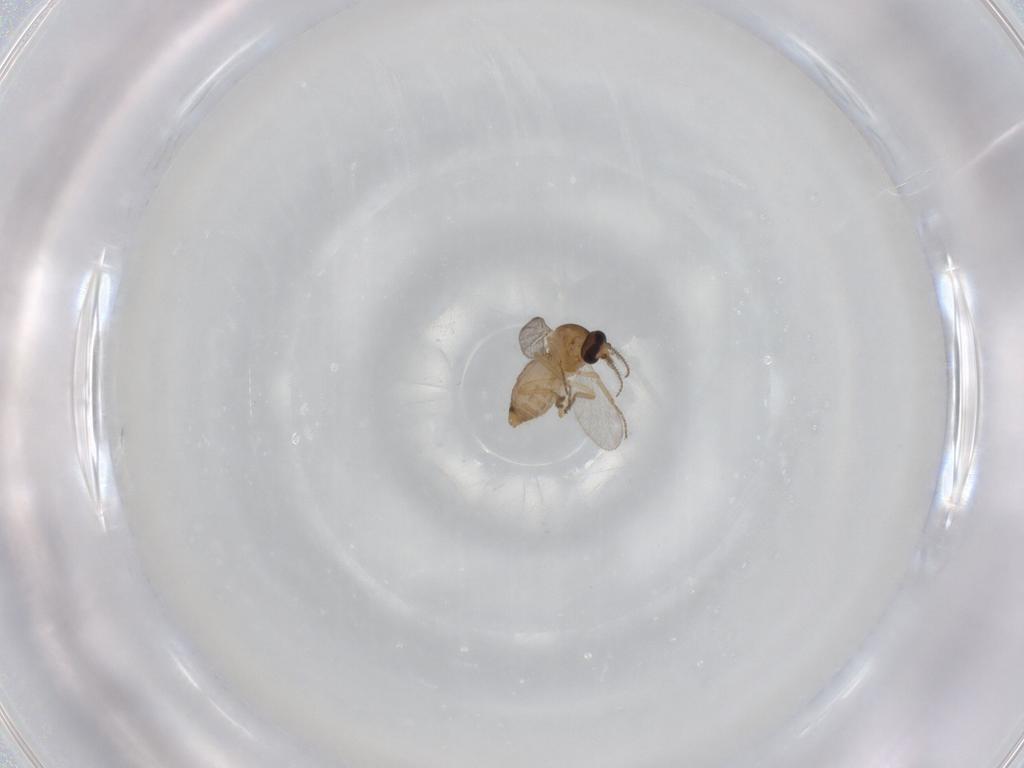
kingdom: Animalia
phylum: Arthropoda
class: Insecta
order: Diptera
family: Ceratopogonidae
